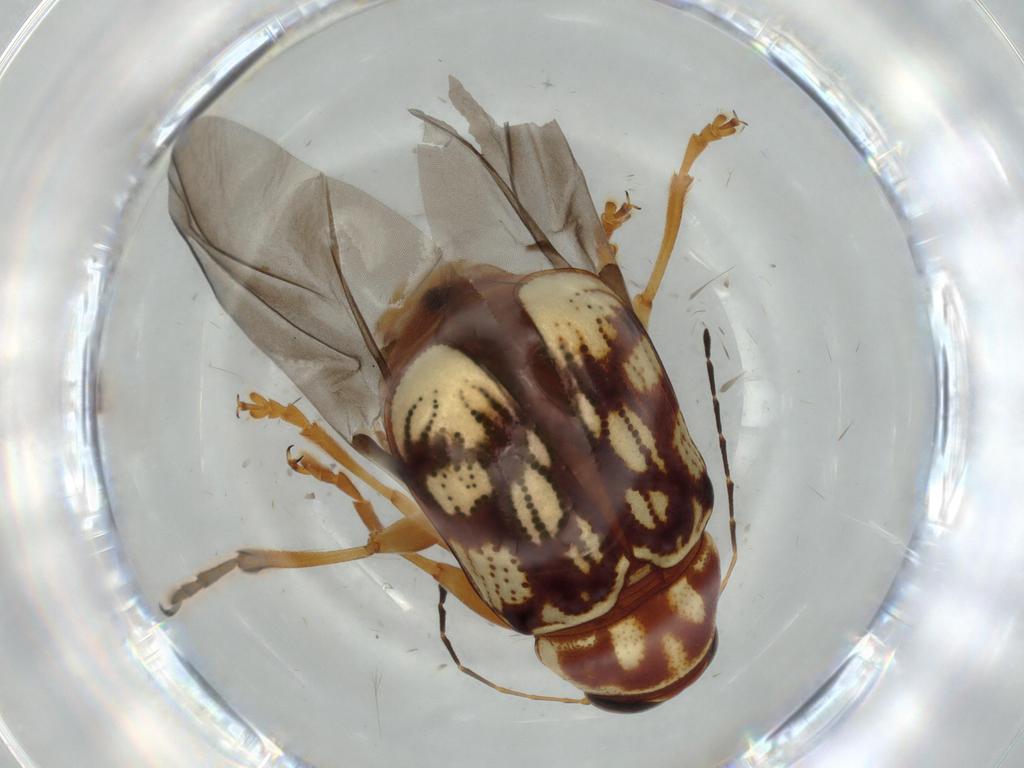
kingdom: Animalia
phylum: Arthropoda
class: Insecta
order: Coleoptera
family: Chrysomelidae
